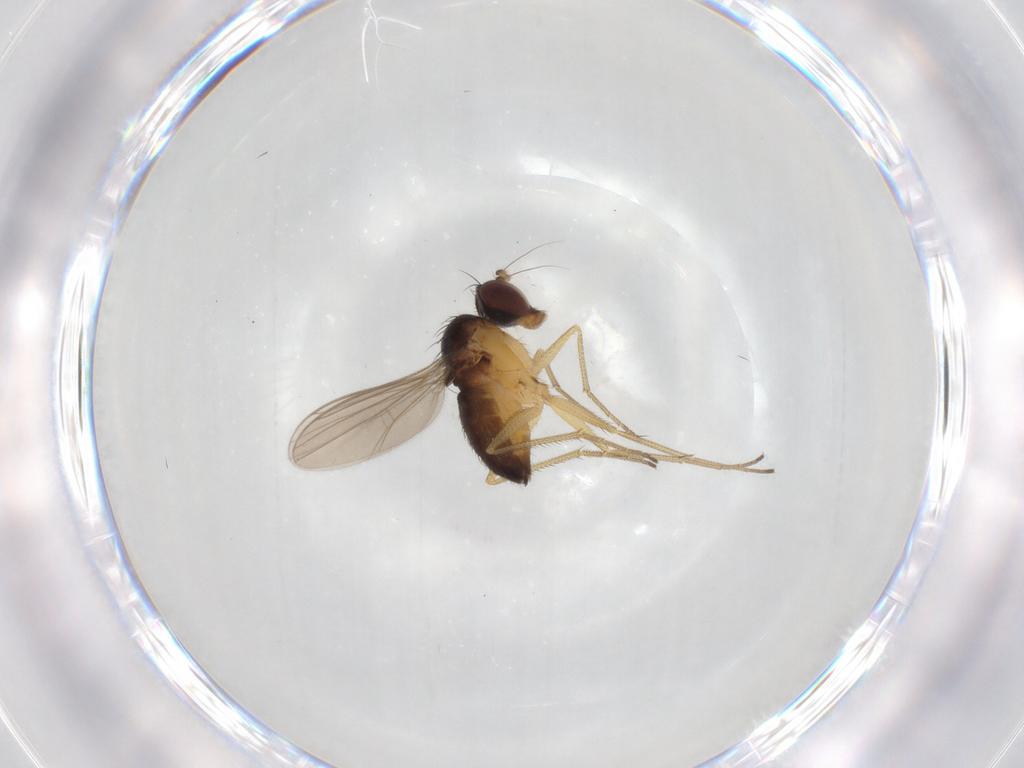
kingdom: Animalia
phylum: Arthropoda
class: Insecta
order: Diptera
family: Dolichopodidae
